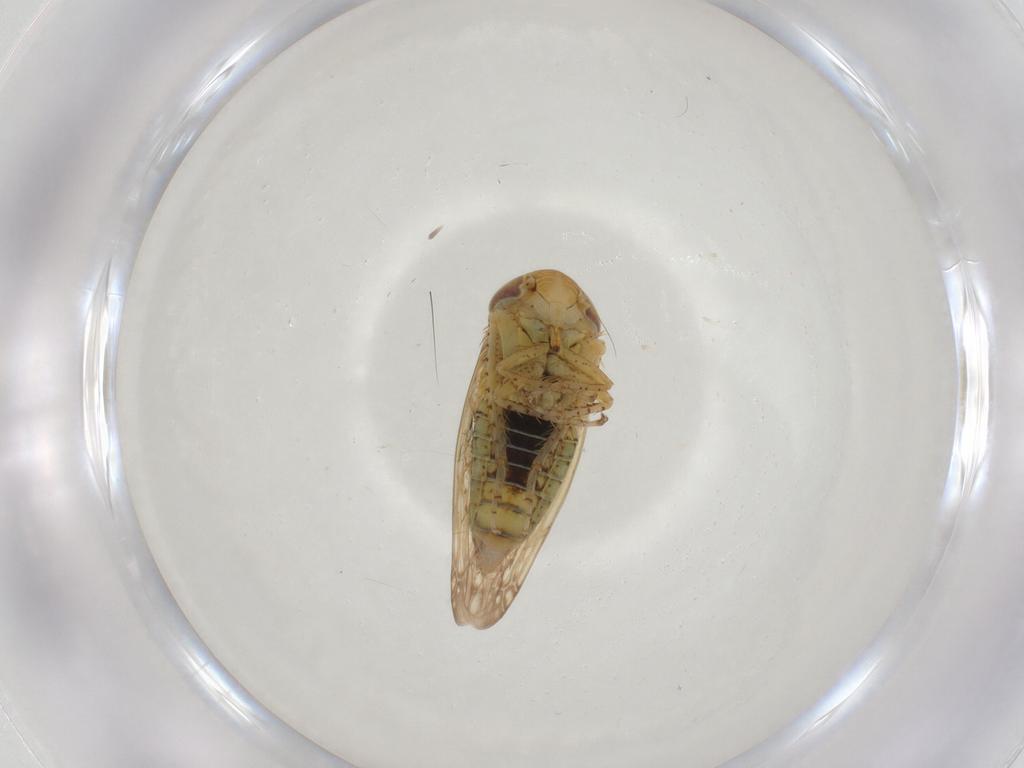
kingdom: Animalia
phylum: Arthropoda
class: Insecta
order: Hemiptera
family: Cicadellidae
